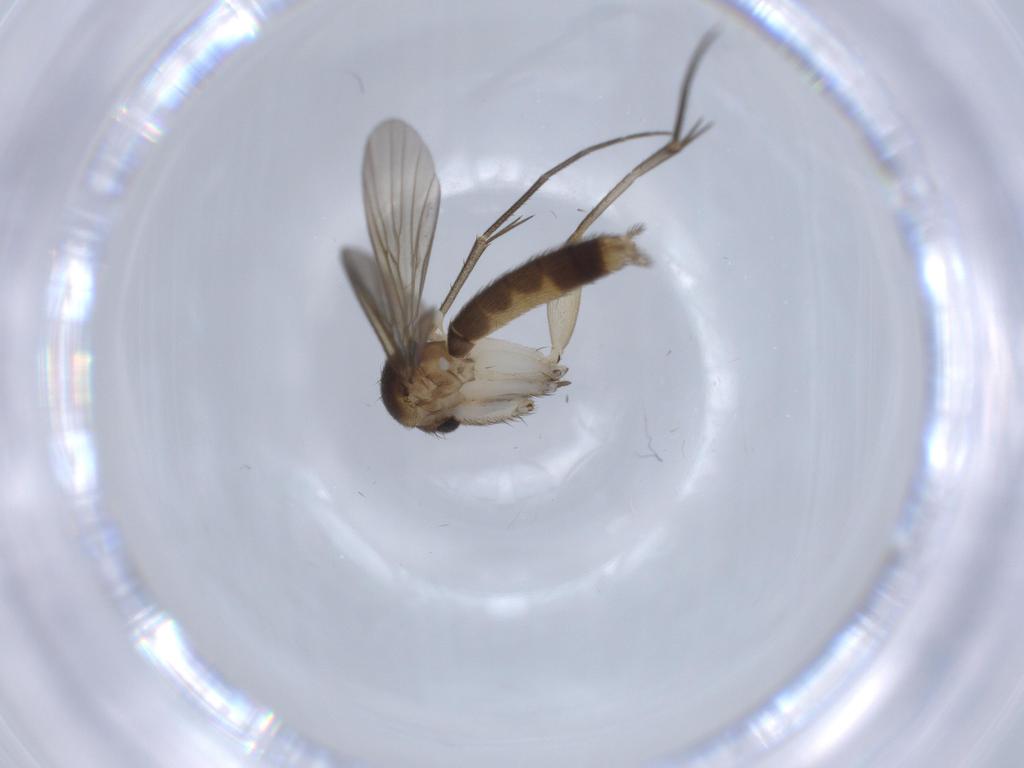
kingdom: Animalia
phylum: Arthropoda
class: Insecta
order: Diptera
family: Mycetophilidae
